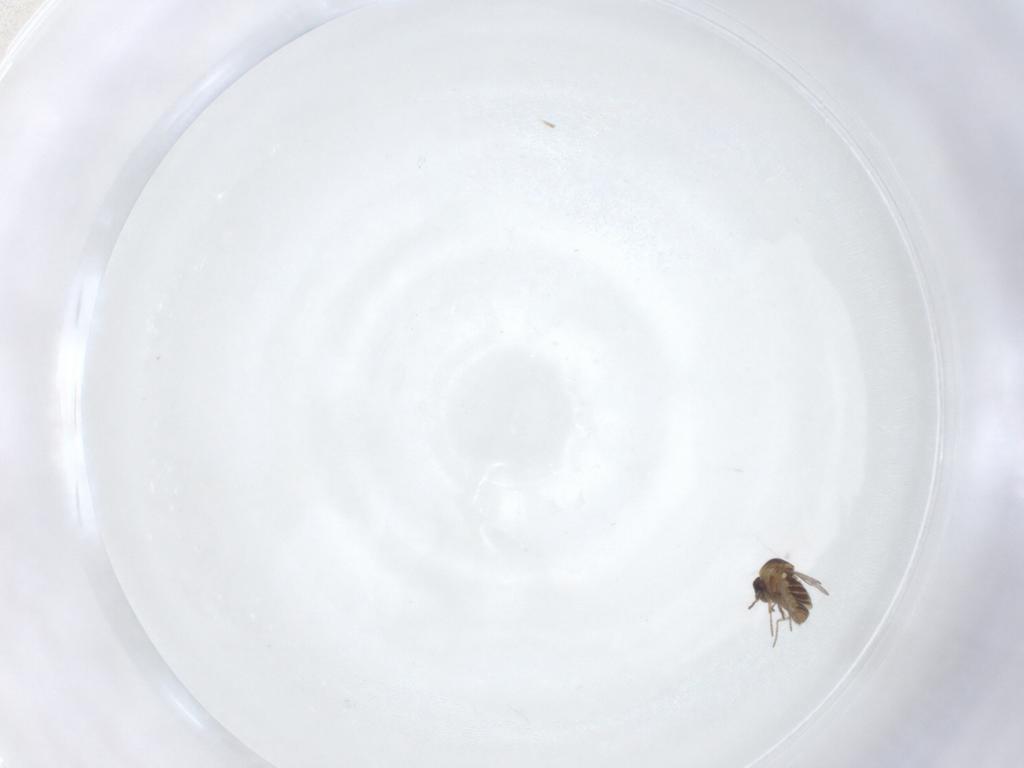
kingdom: Animalia
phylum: Arthropoda
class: Insecta
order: Diptera
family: Ceratopogonidae
